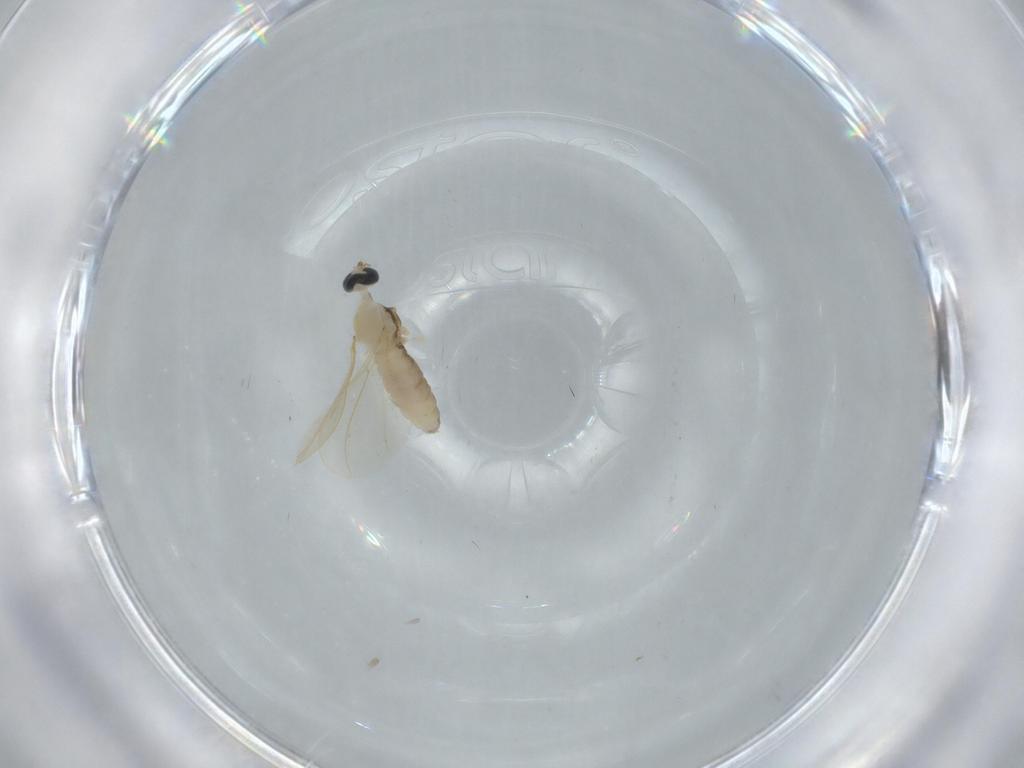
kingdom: Animalia
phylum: Arthropoda
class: Insecta
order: Diptera
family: Cecidomyiidae
